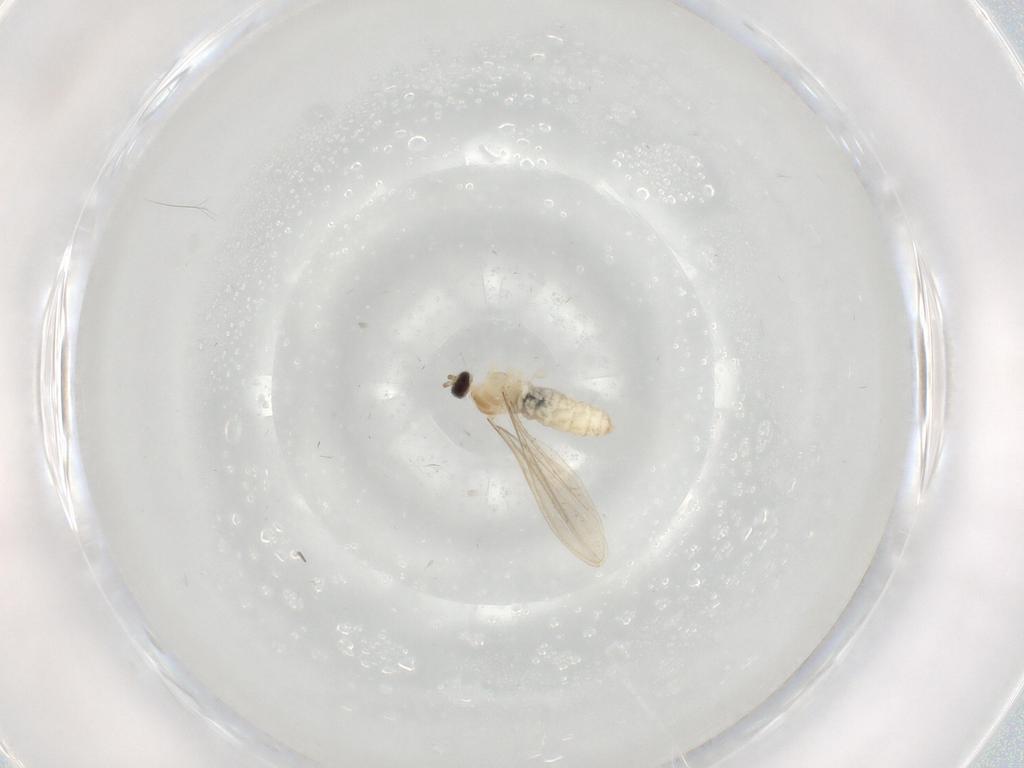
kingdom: Animalia
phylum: Arthropoda
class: Insecta
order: Diptera
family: Cecidomyiidae
